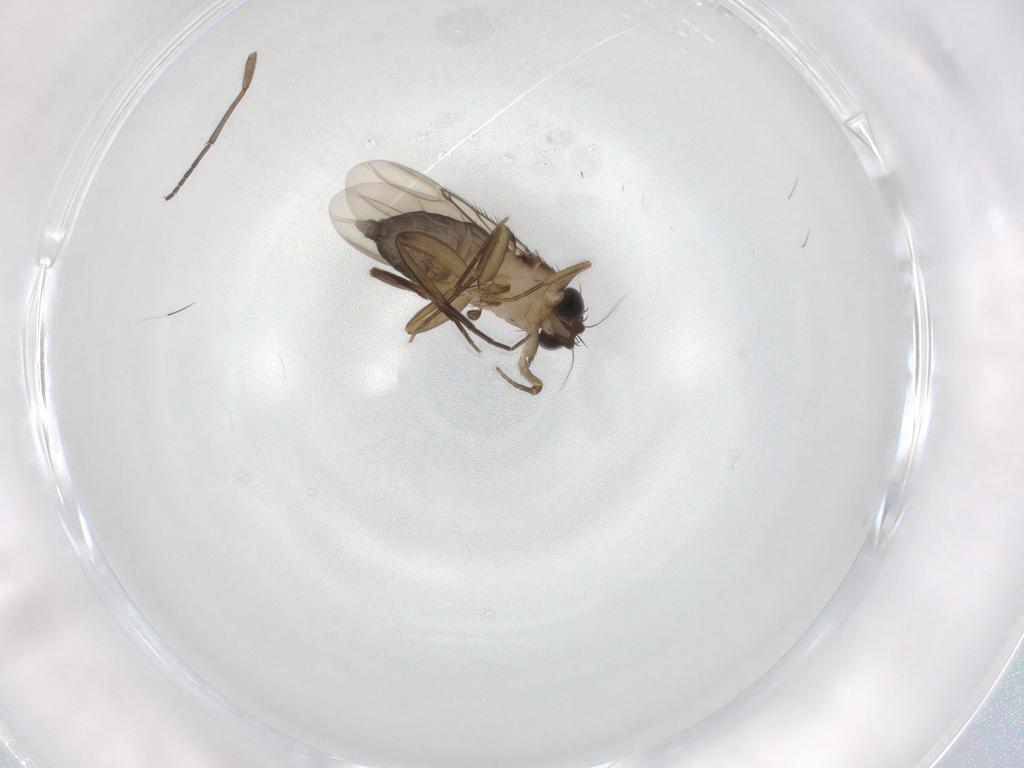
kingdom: Animalia
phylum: Arthropoda
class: Insecta
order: Diptera
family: Phoridae
